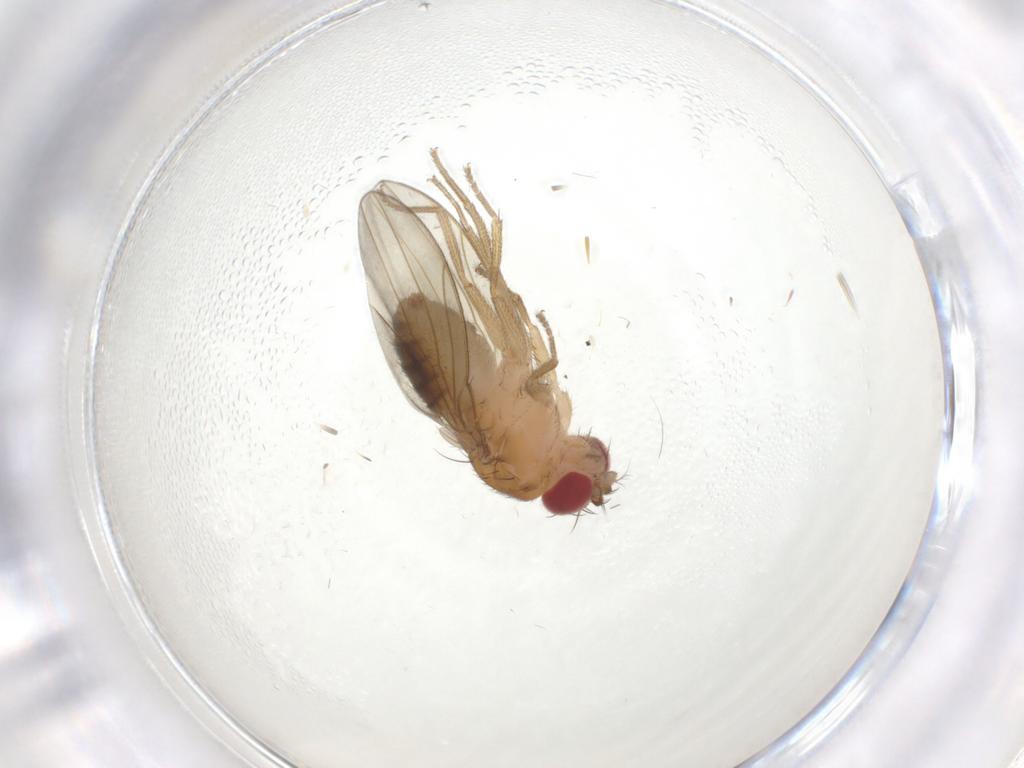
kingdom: Animalia
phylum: Arthropoda
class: Insecta
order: Diptera
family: Drosophilidae
